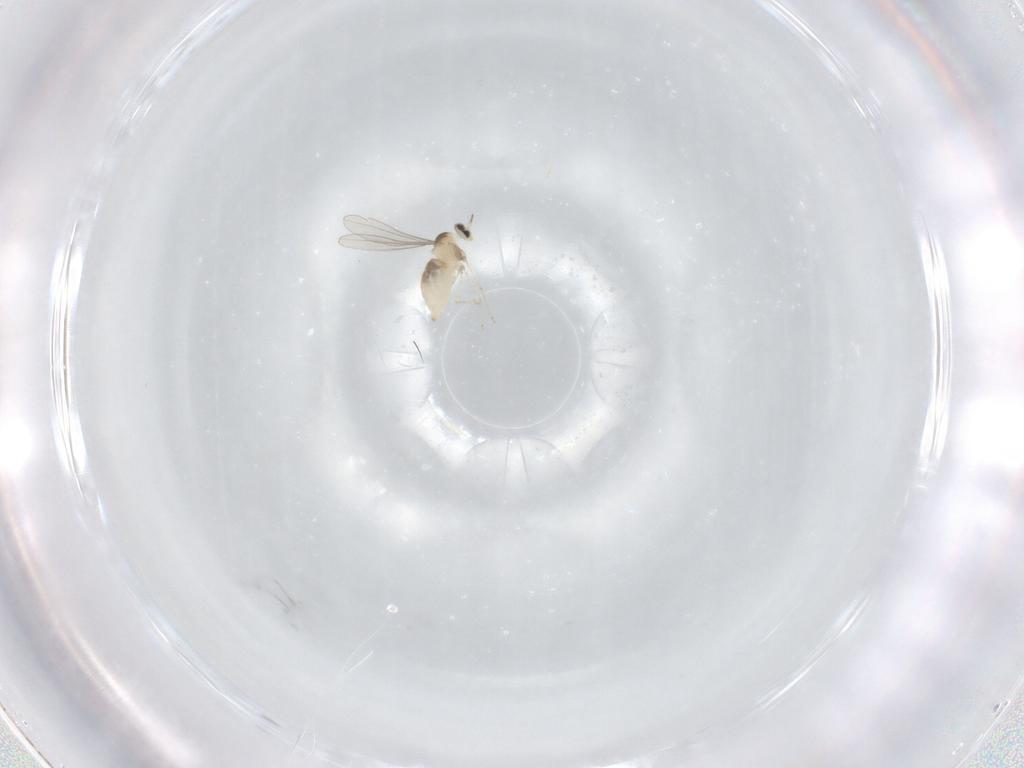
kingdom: Animalia
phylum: Arthropoda
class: Insecta
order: Diptera
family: Cecidomyiidae
